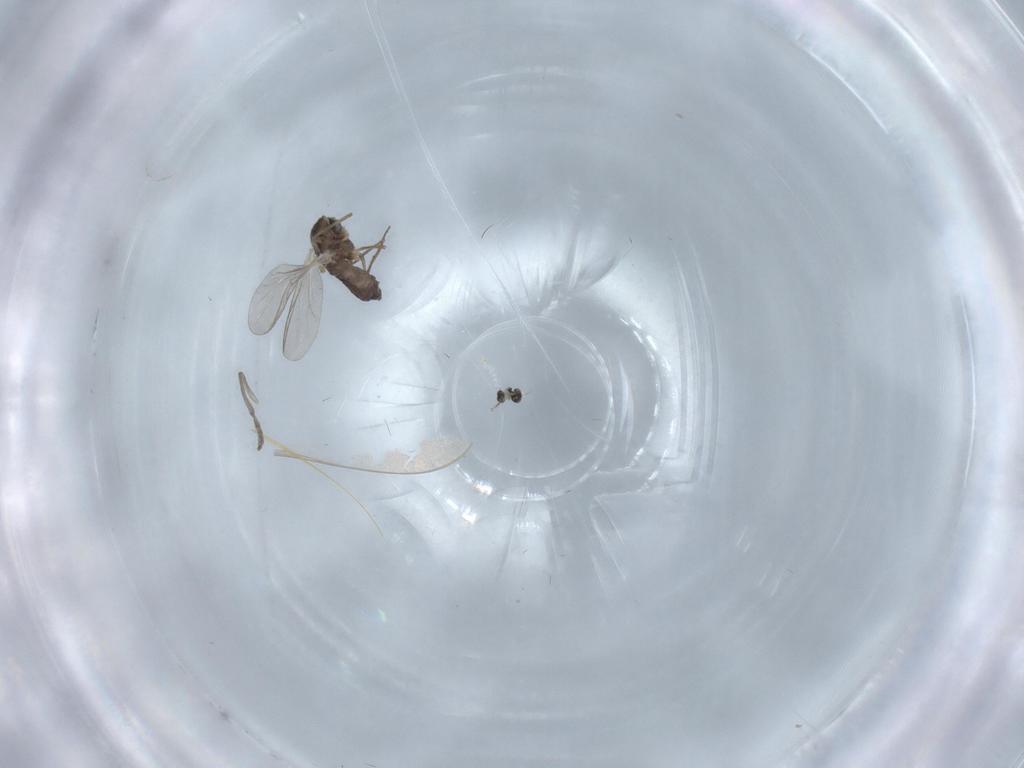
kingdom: Animalia
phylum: Arthropoda
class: Insecta
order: Diptera
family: Chironomidae
